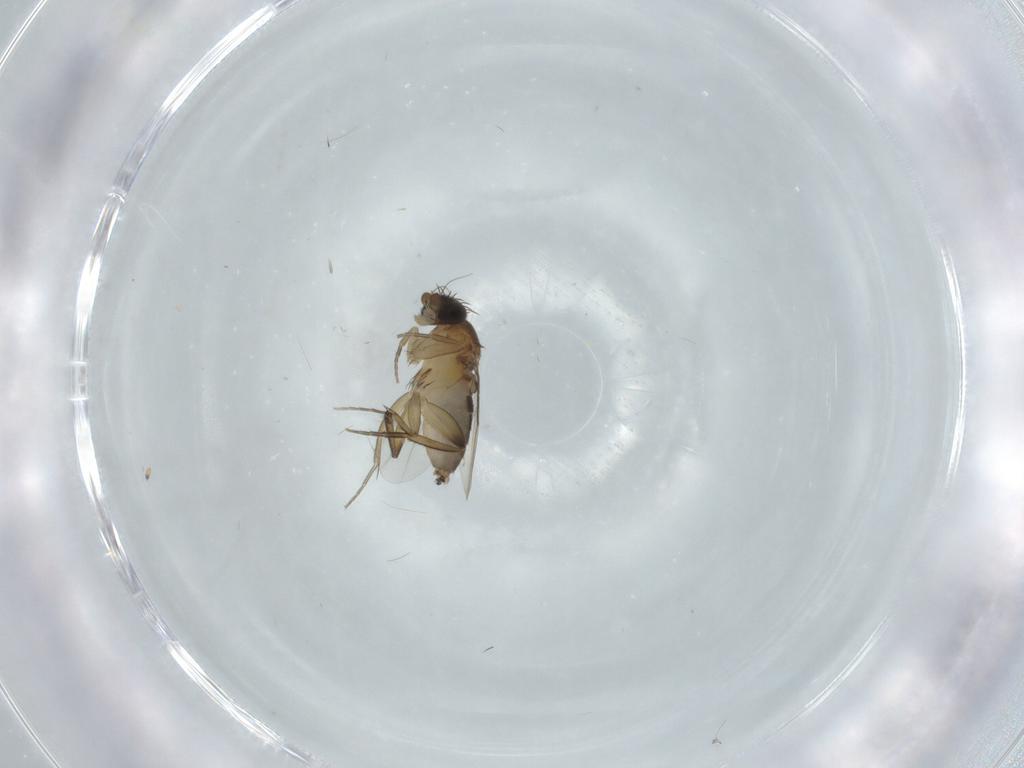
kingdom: Animalia
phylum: Arthropoda
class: Insecta
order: Diptera
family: Phoridae
